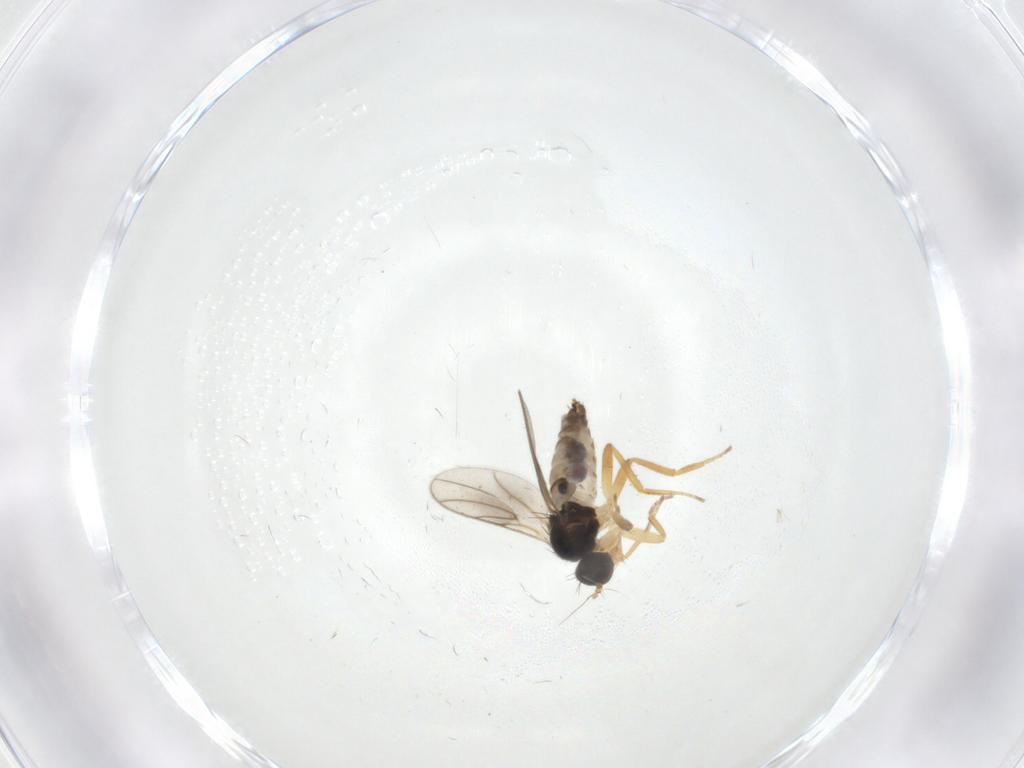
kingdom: Animalia
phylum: Arthropoda
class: Insecta
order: Diptera
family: Hybotidae
